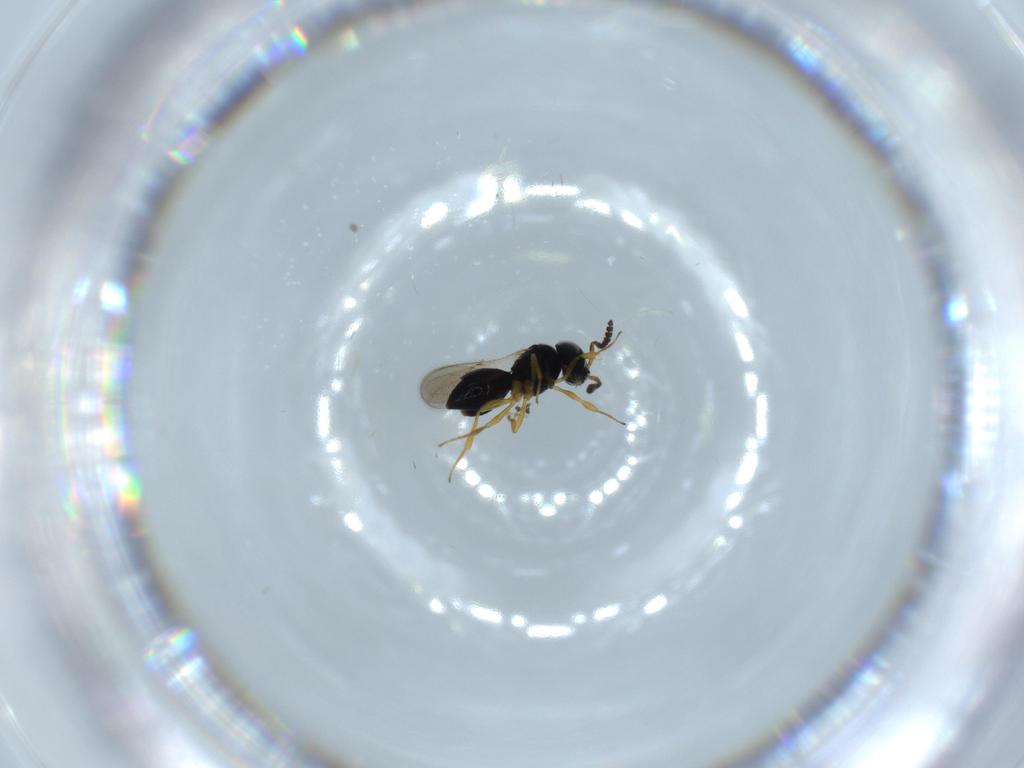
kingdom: Animalia
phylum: Arthropoda
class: Insecta
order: Hymenoptera
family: Scelionidae
